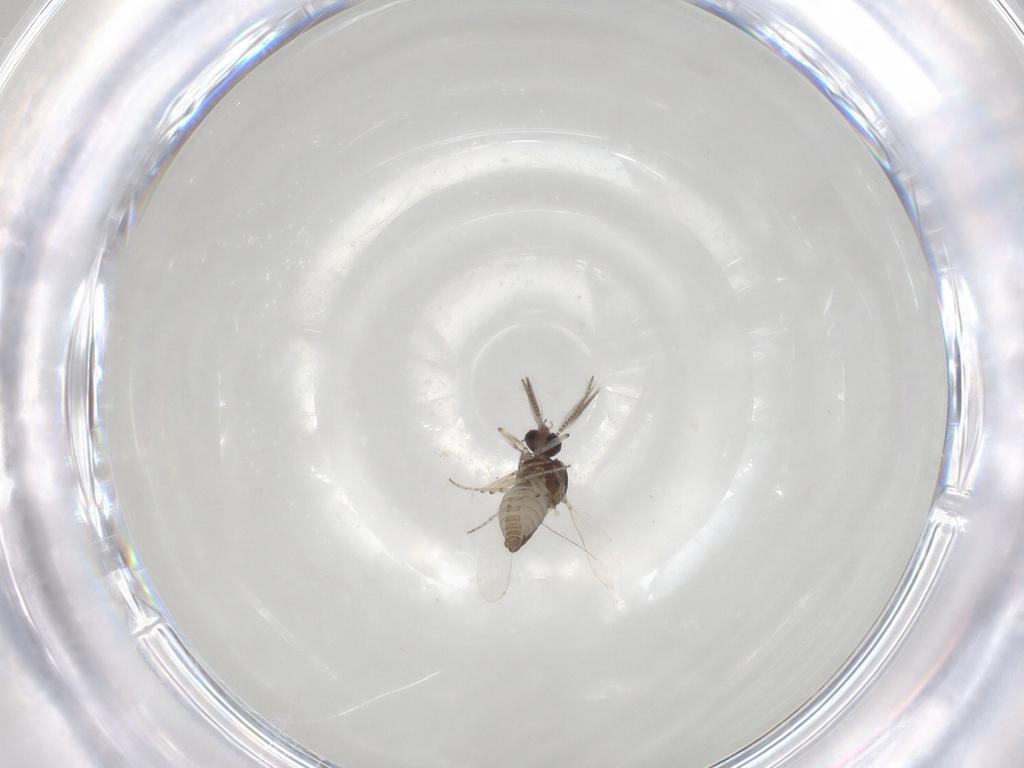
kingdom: Animalia
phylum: Arthropoda
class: Insecta
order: Diptera
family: Ceratopogonidae
